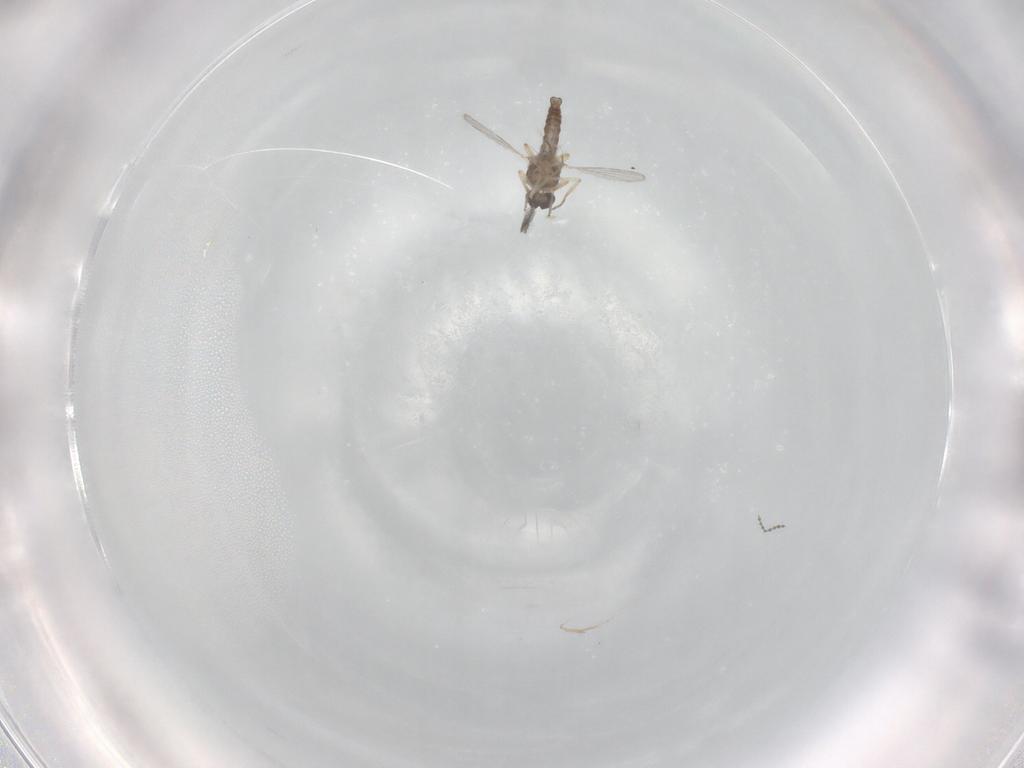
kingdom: Animalia
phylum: Arthropoda
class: Insecta
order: Diptera
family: Ceratopogonidae
